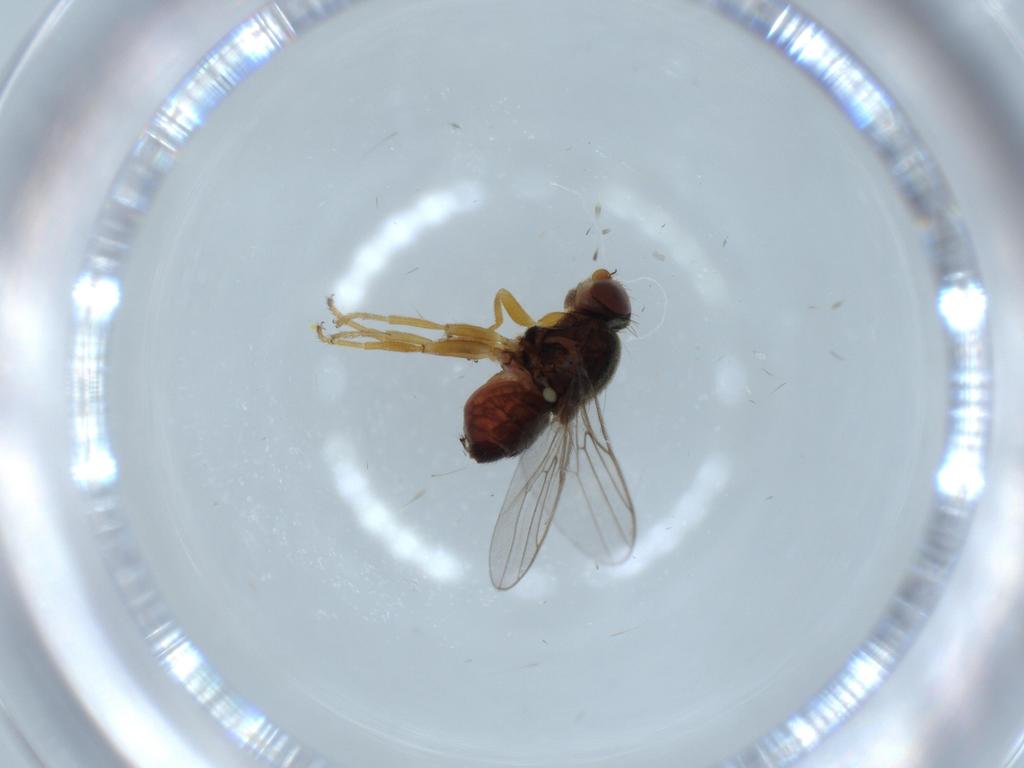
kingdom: Animalia
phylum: Arthropoda
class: Insecta
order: Diptera
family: Chloropidae
